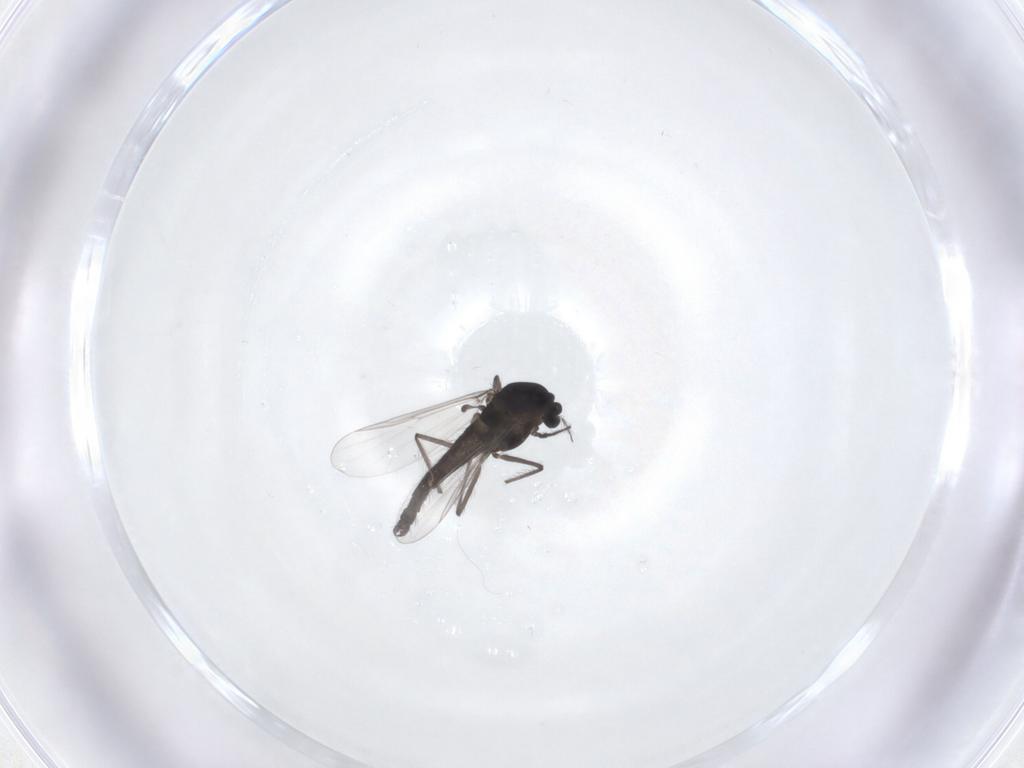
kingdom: Animalia
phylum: Arthropoda
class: Insecta
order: Diptera
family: Chironomidae
